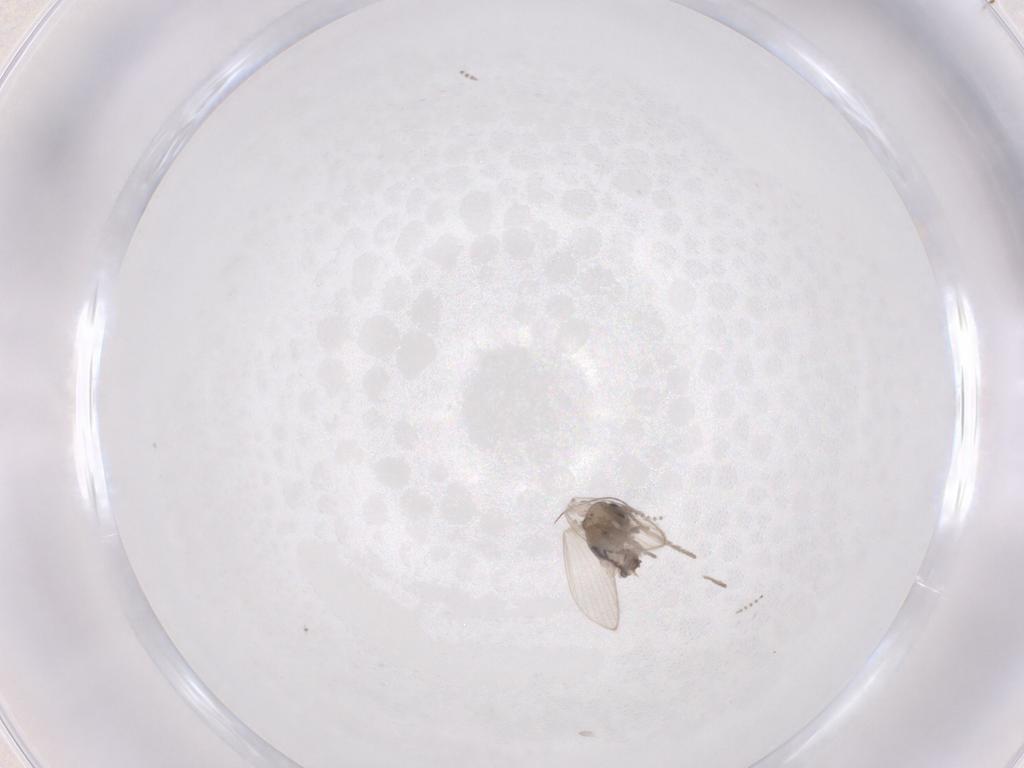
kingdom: Animalia
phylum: Arthropoda
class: Insecta
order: Diptera
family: Psychodidae
